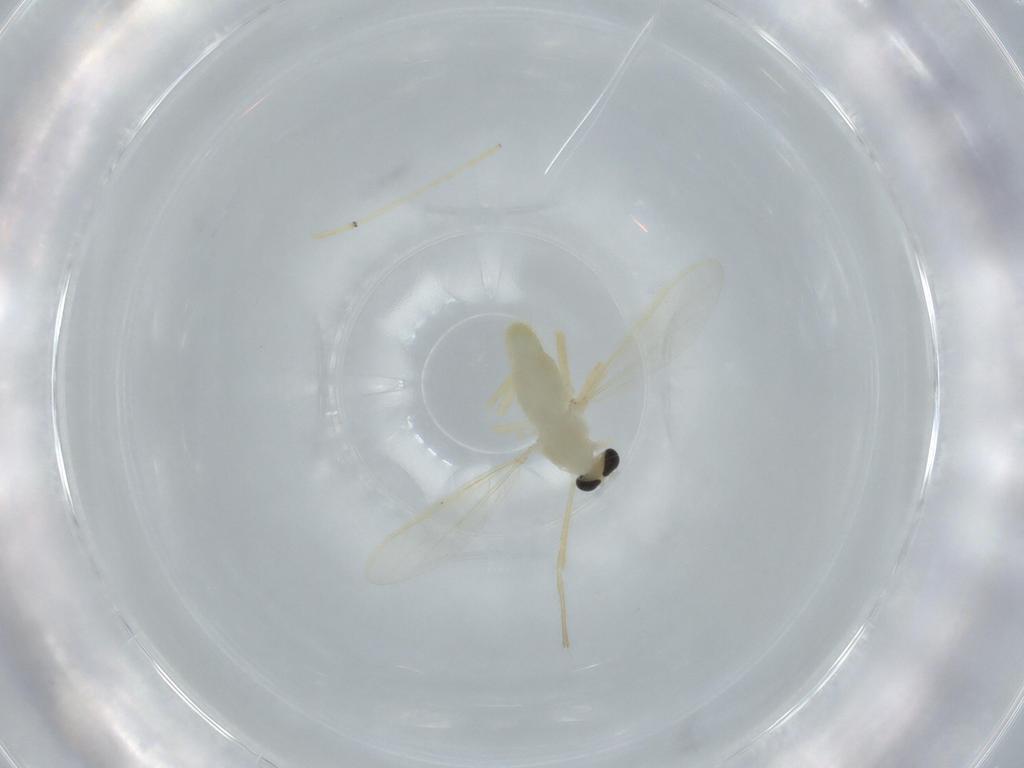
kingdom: Animalia
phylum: Arthropoda
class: Insecta
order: Diptera
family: Chironomidae
